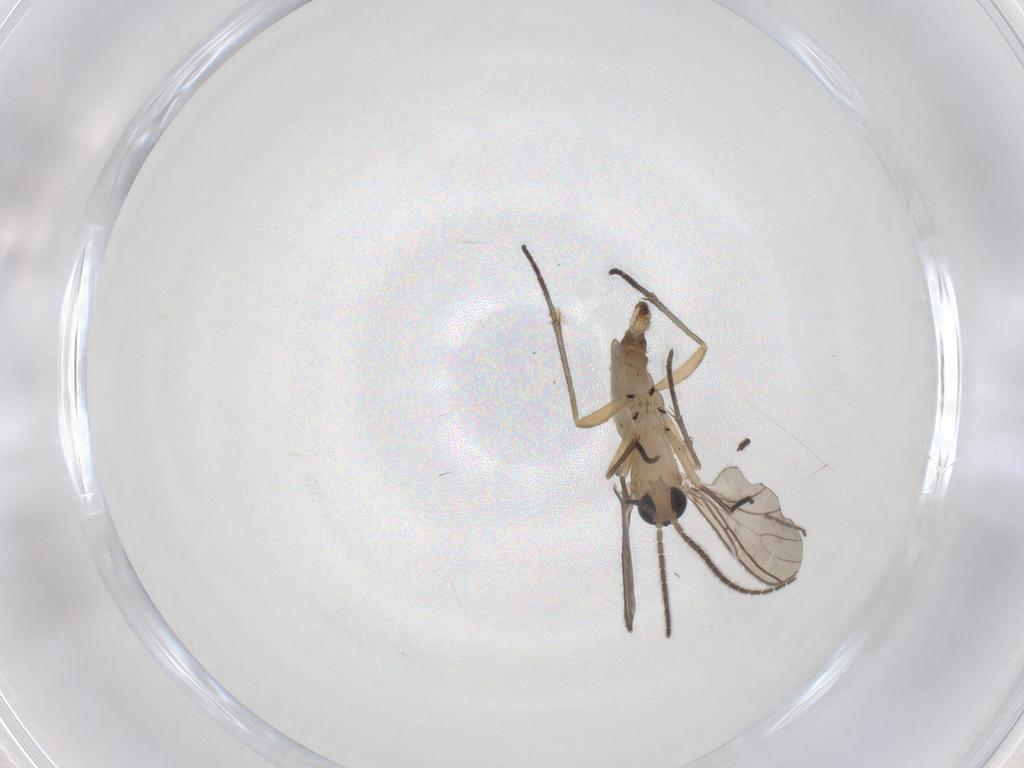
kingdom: Animalia
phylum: Arthropoda
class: Insecta
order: Diptera
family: Sciaridae
